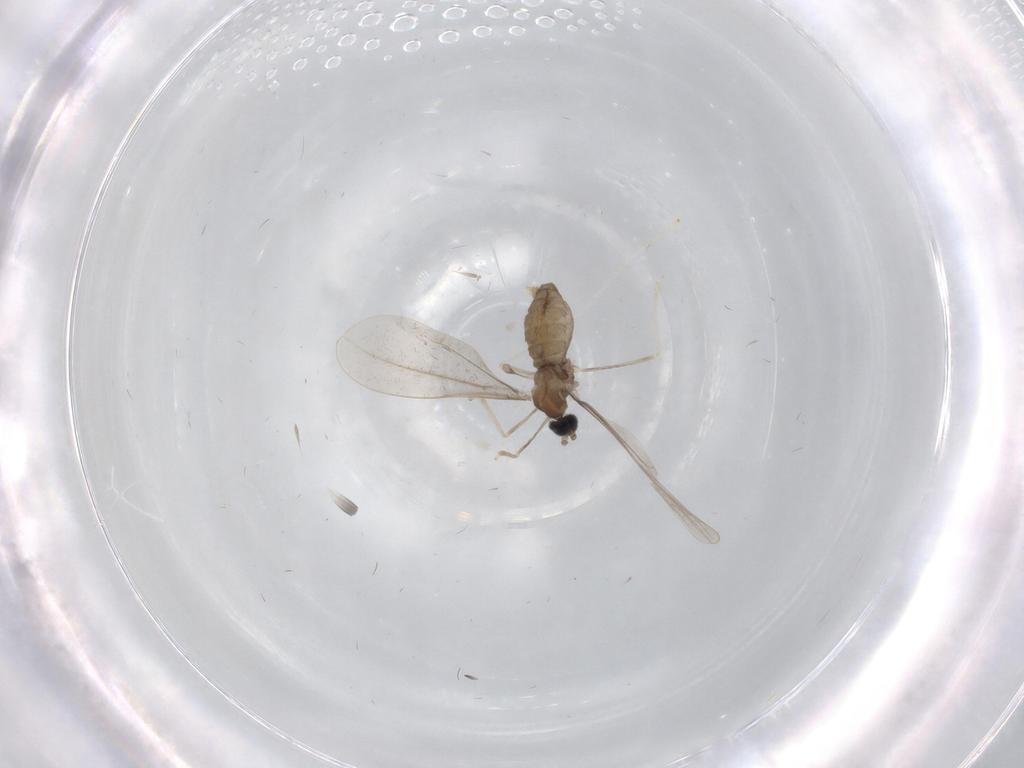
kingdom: Animalia
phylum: Arthropoda
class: Insecta
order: Diptera
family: Cecidomyiidae
